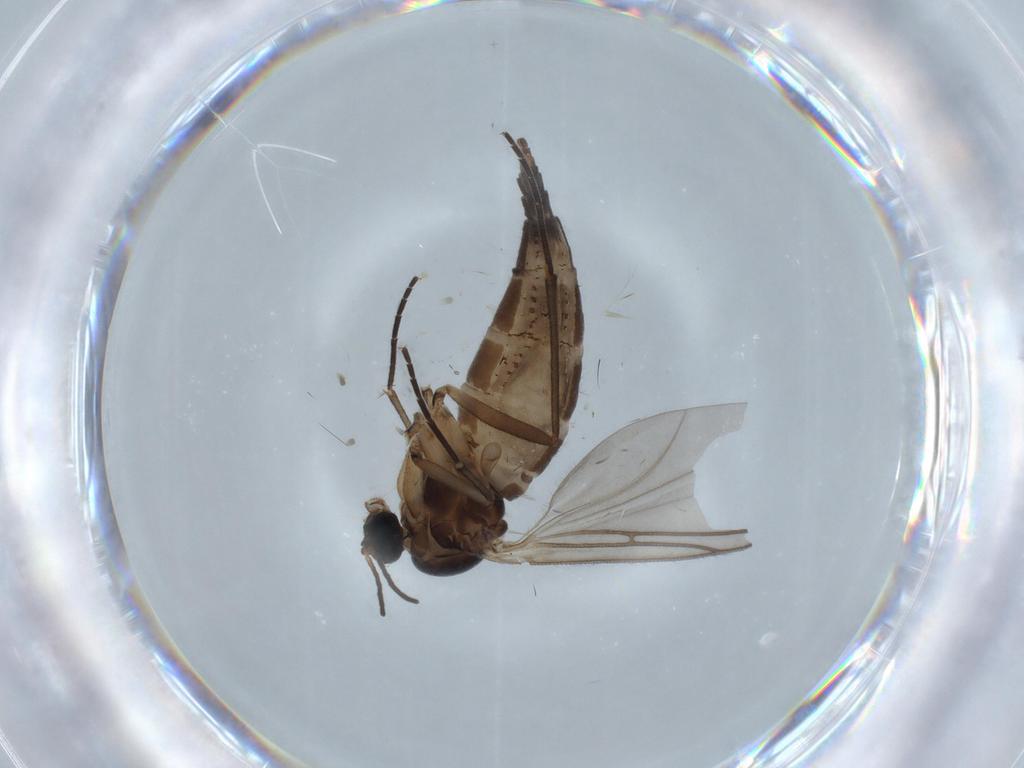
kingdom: Animalia
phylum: Arthropoda
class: Insecta
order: Diptera
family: Sciaridae
